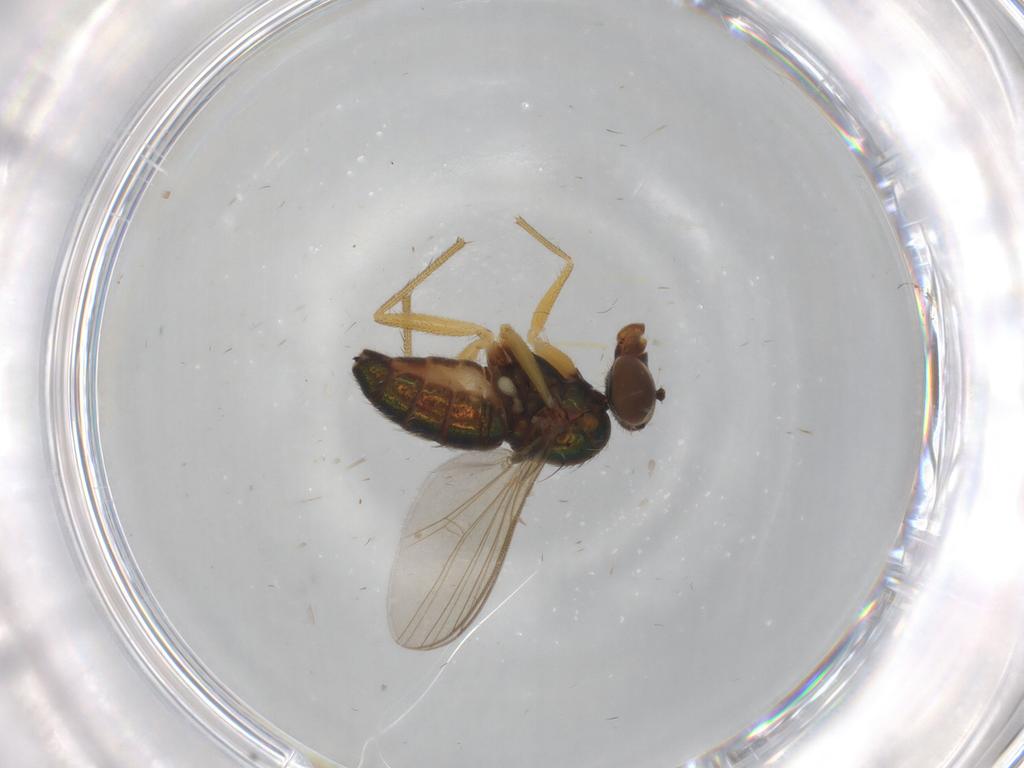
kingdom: Animalia
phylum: Arthropoda
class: Insecta
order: Diptera
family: Dolichopodidae
